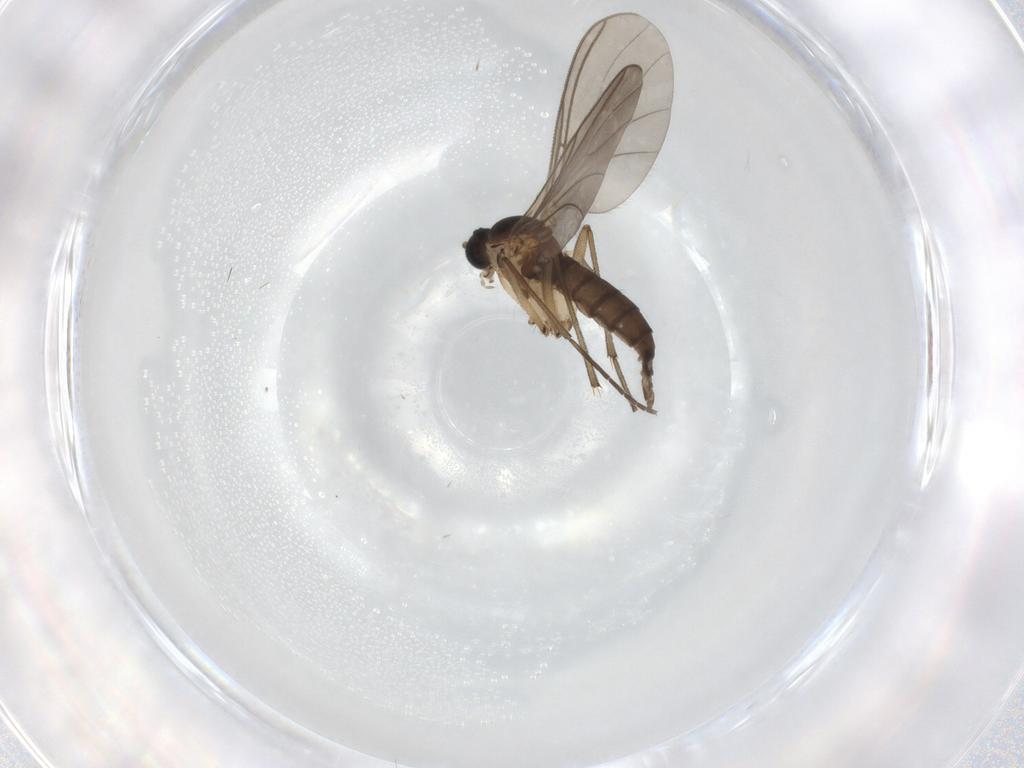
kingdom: Animalia
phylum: Arthropoda
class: Insecta
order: Diptera
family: Sciaridae
